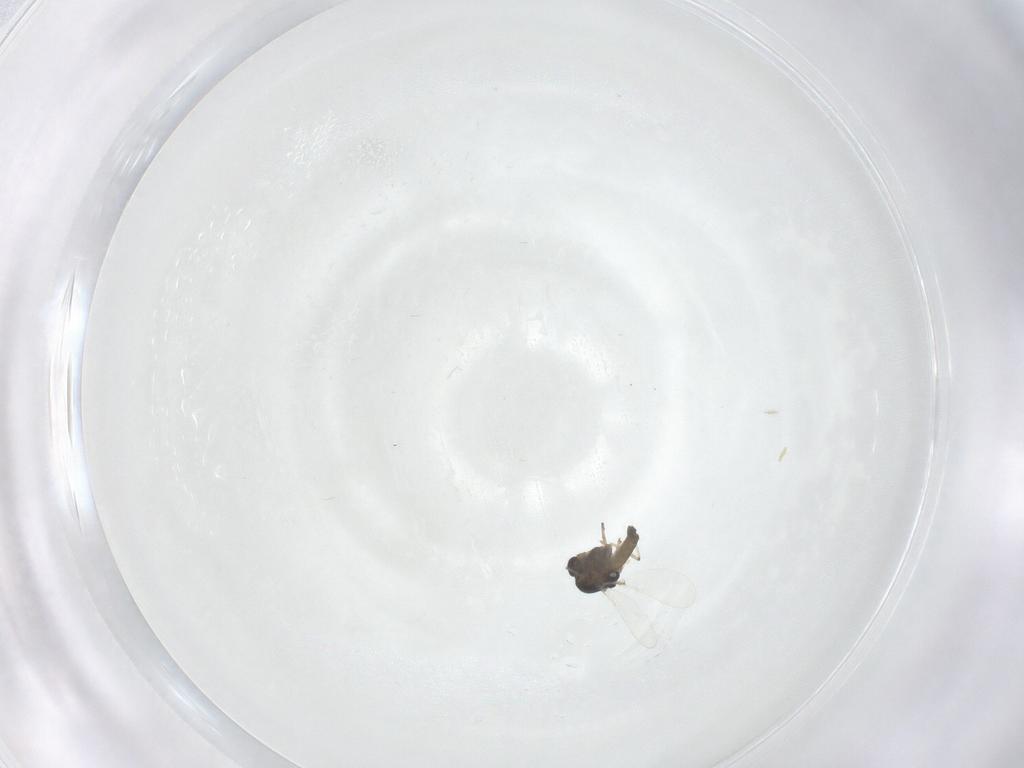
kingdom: Animalia
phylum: Arthropoda
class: Insecta
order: Diptera
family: Chironomidae
